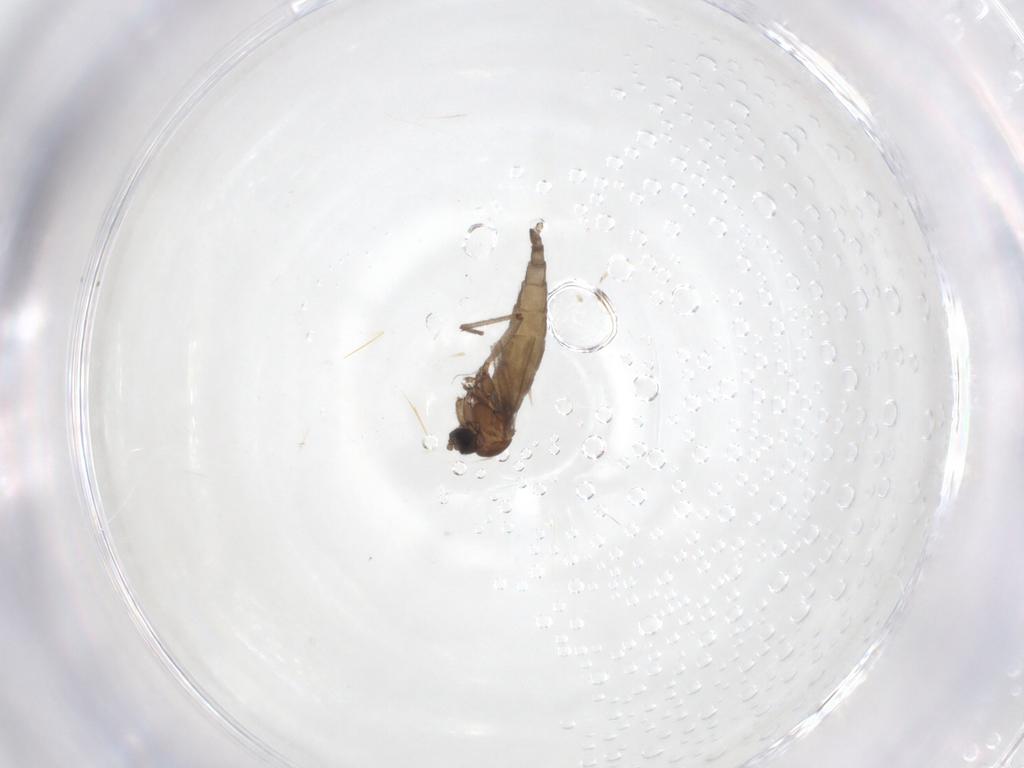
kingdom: Animalia
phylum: Arthropoda
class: Insecta
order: Diptera
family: Sciaridae
